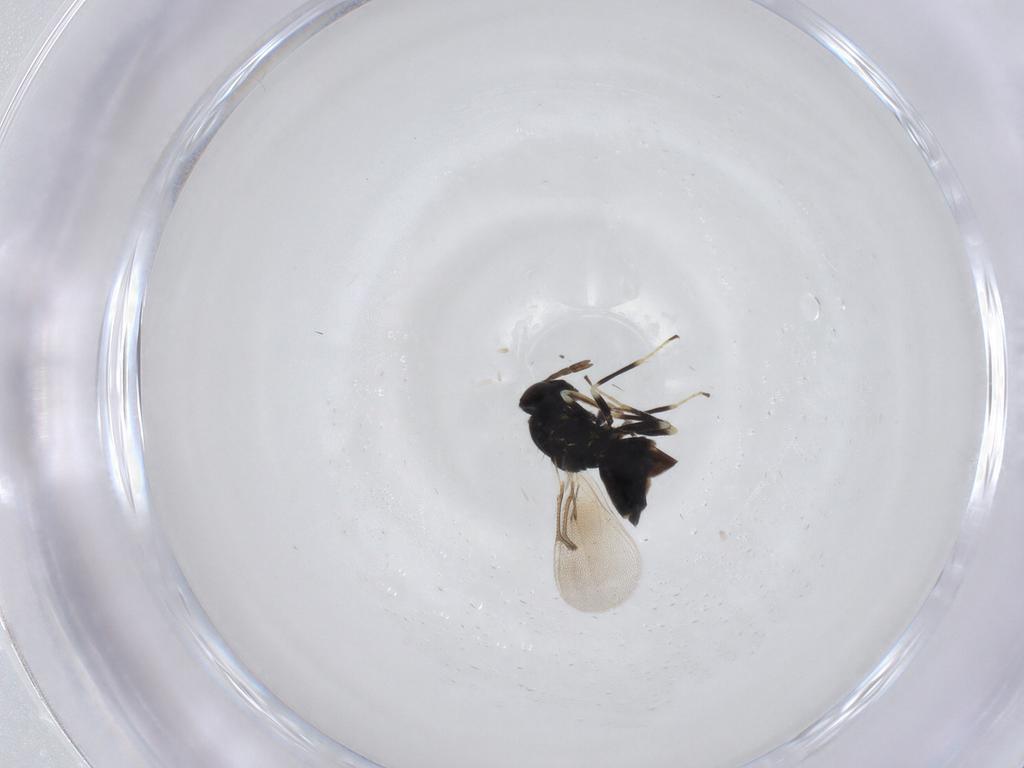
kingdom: Animalia
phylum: Arthropoda
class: Insecta
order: Hymenoptera
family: Eulophidae
